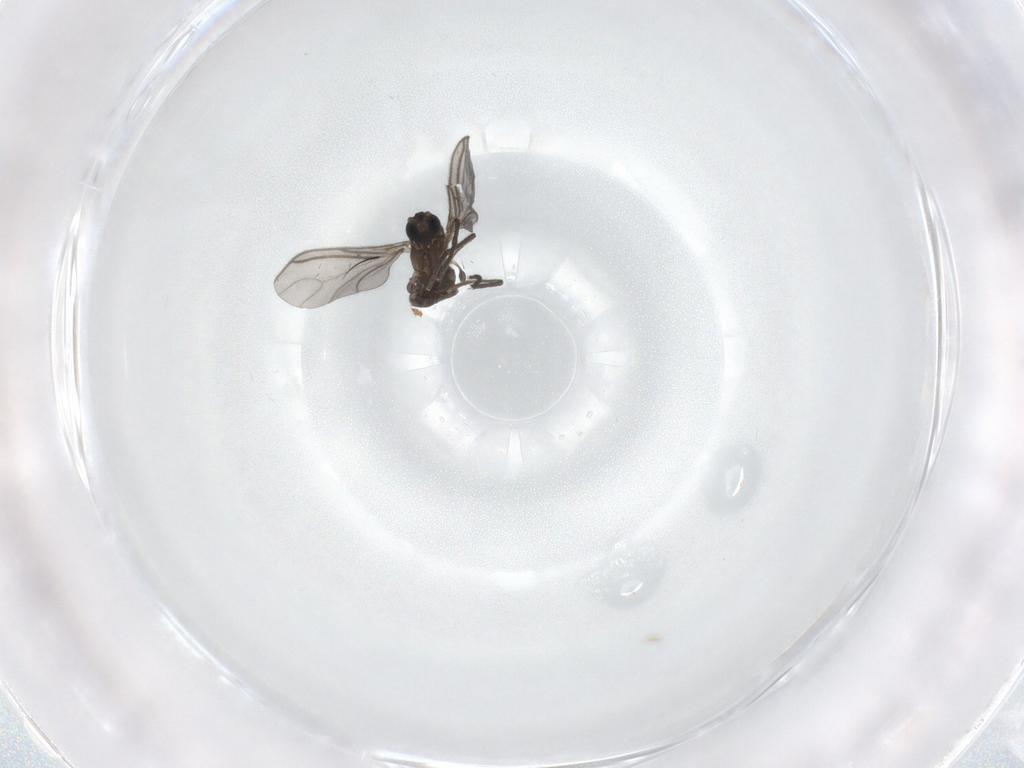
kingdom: Animalia
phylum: Arthropoda
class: Insecta
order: Diptera
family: Sciaridae
